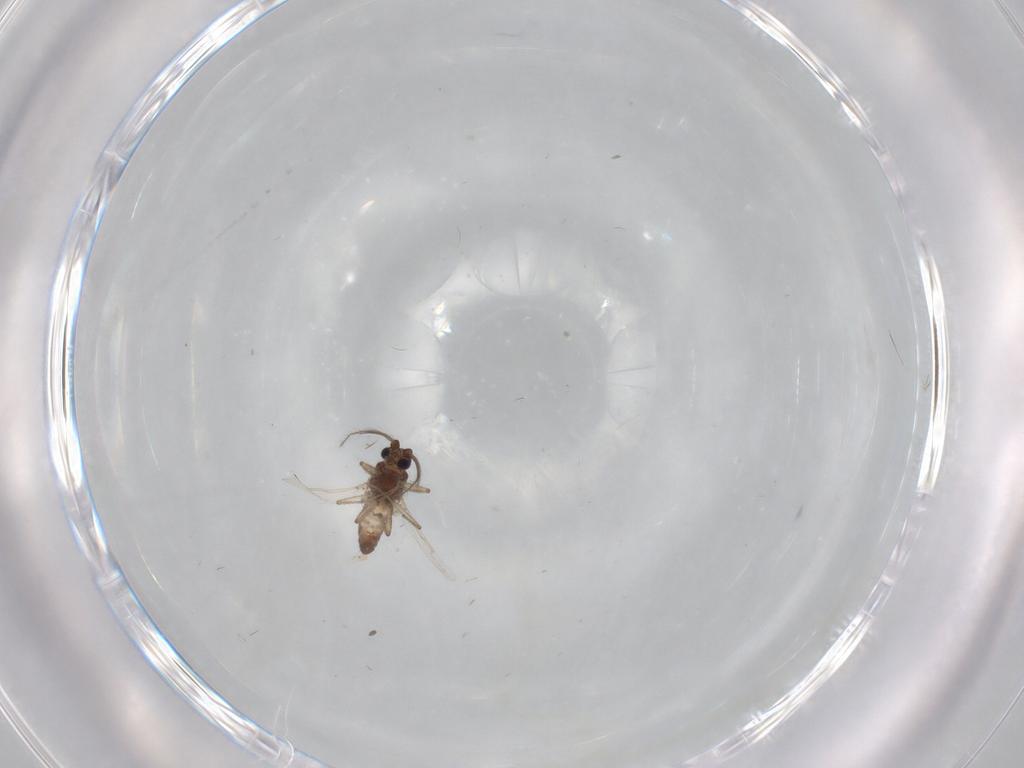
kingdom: Animalia
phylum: Arthropoda
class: Insecta
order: Diptera
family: Ceratopogonidae
